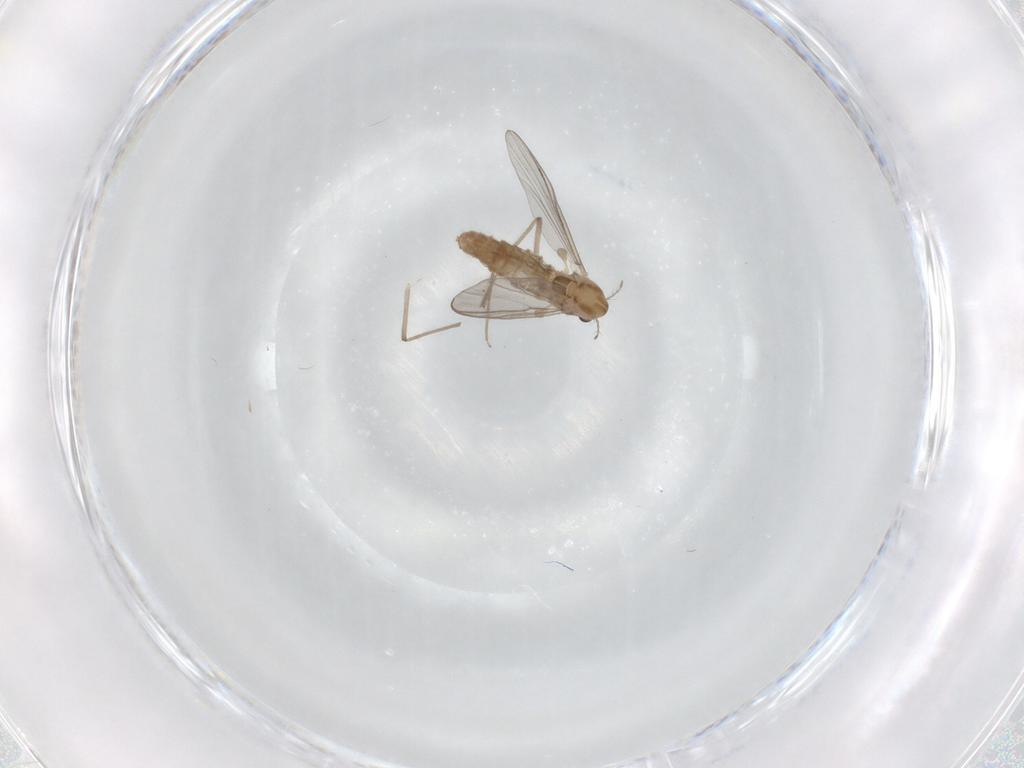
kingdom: Animalia
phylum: Arthropoda
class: Insecta
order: Diptera
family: Chironomidae
